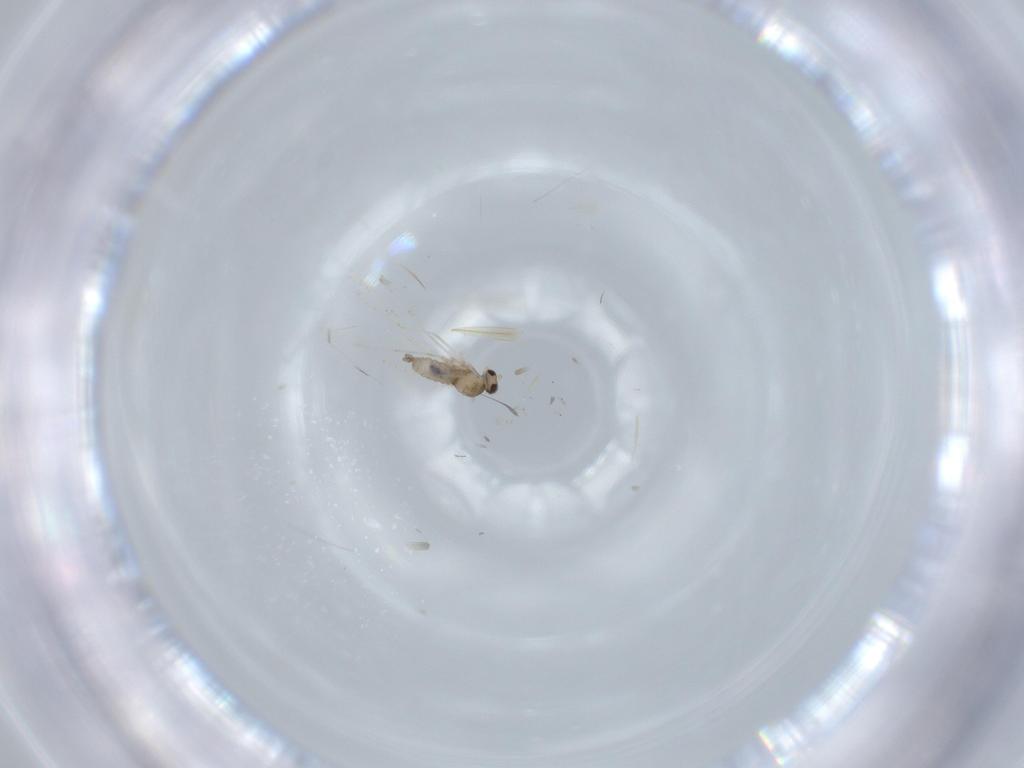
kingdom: Animalia
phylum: Arthropoda
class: Insecta
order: Diptera
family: Cecidomyiidae
